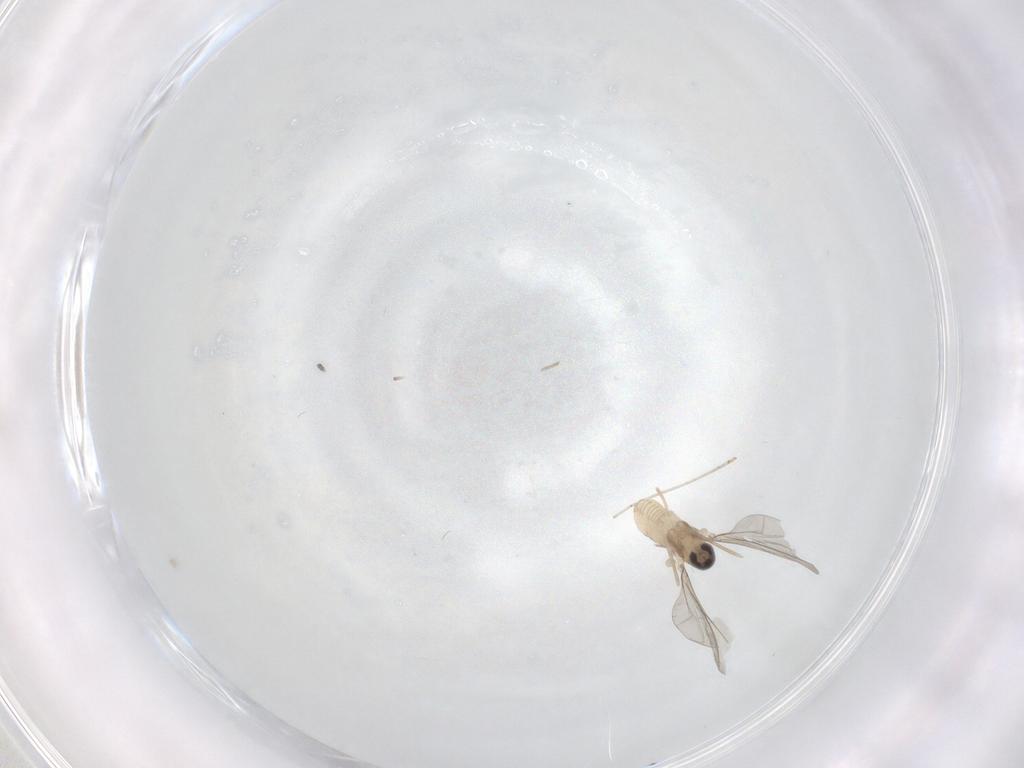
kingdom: Animalia
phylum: Arthropoda
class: Insecta
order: Diptera
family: Cecidomyiidae
